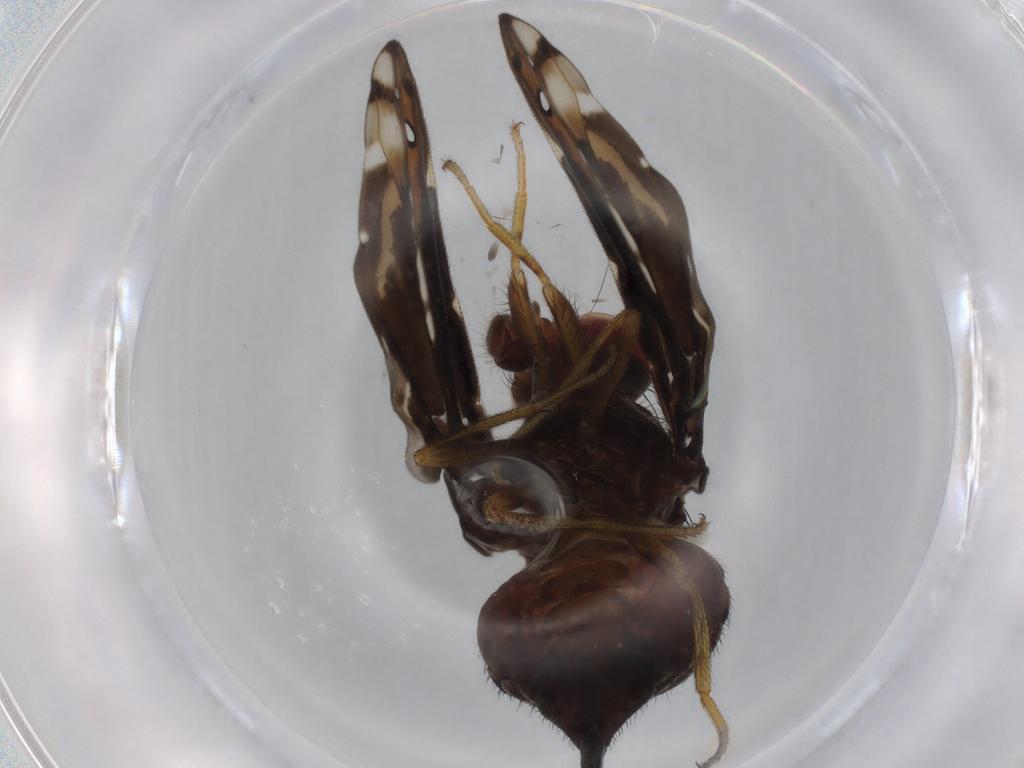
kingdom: Animalia
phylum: Arthropoda
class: Insecta
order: Diptera
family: Ulidiidae
